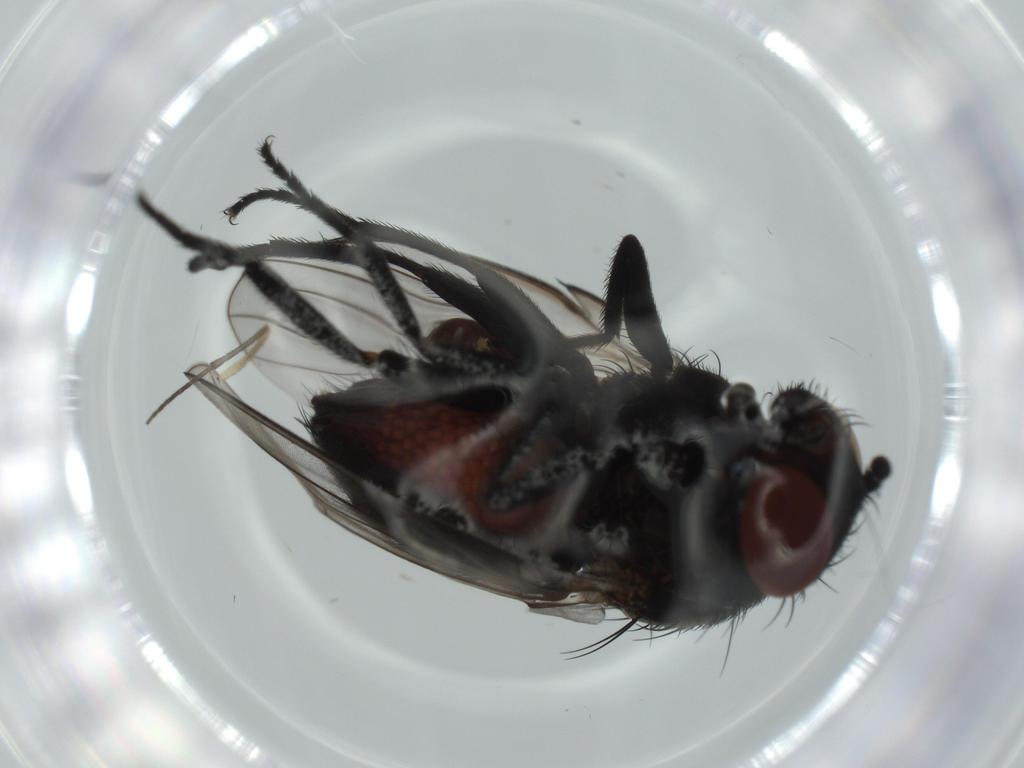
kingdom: Animalia
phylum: Arthropoda
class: Insecta
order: Diptera
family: Milichiidae
